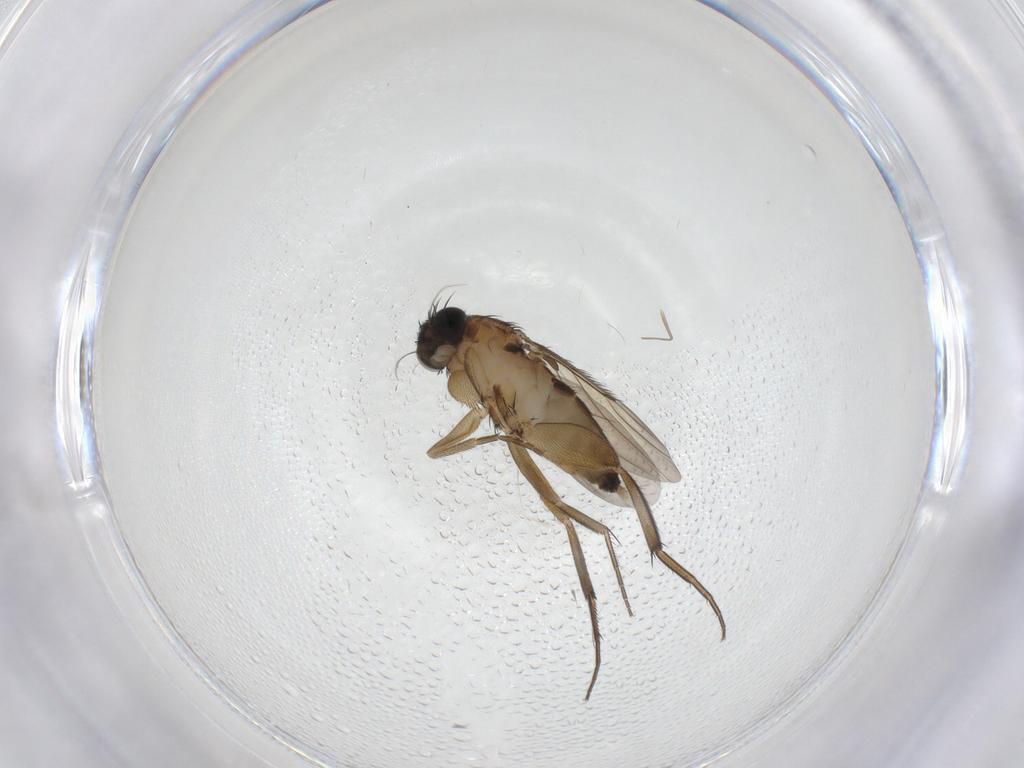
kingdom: Animalia
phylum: Arthropoda
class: Insecta
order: Diptera
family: Phoridae
